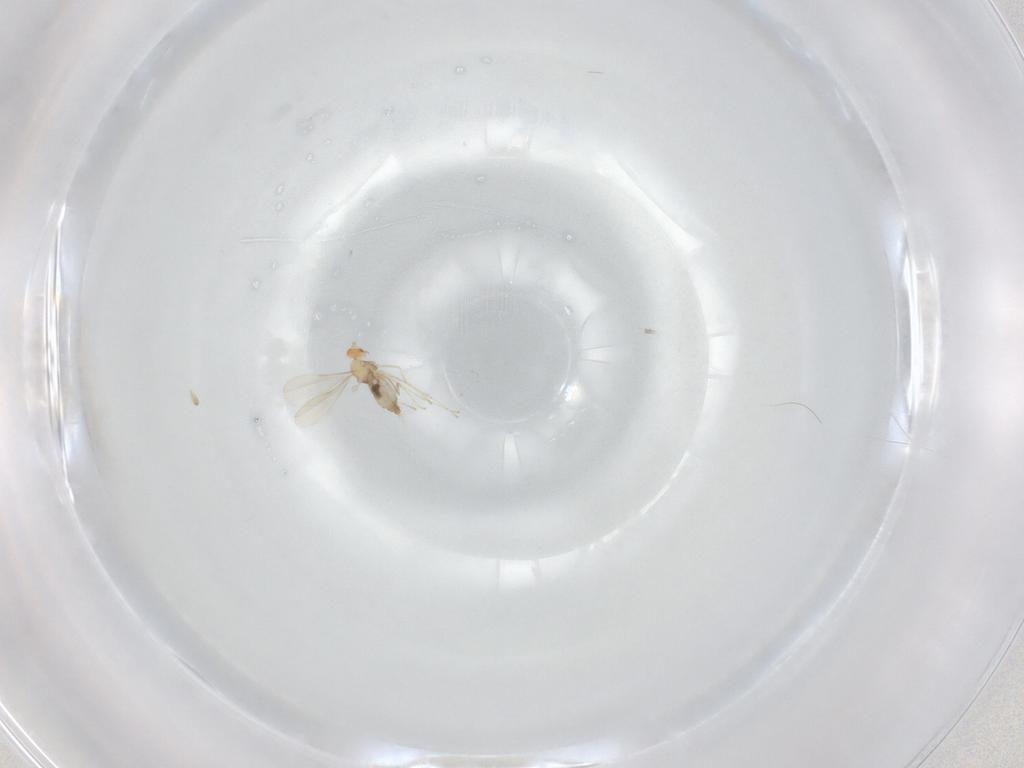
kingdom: Animalia
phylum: Arthropoda
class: Insecta
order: Diptera
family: Cecidomyiidae
